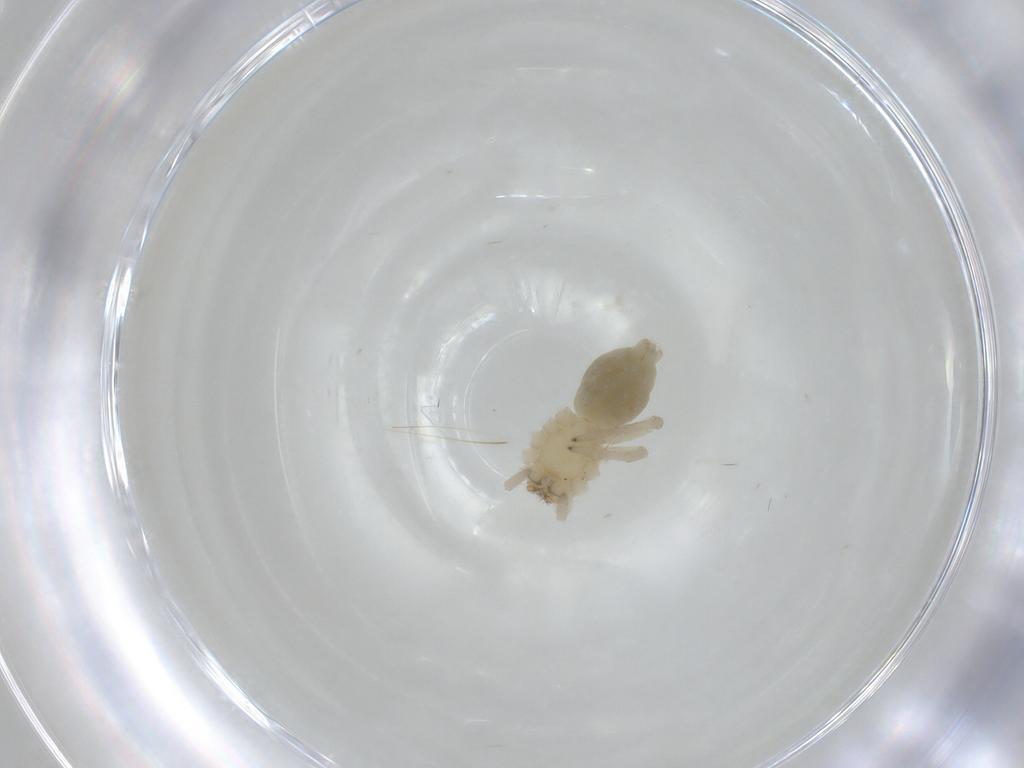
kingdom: Animalia
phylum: Arthropoda
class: Arachnida
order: Araneae
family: Cheiracanthiidae
